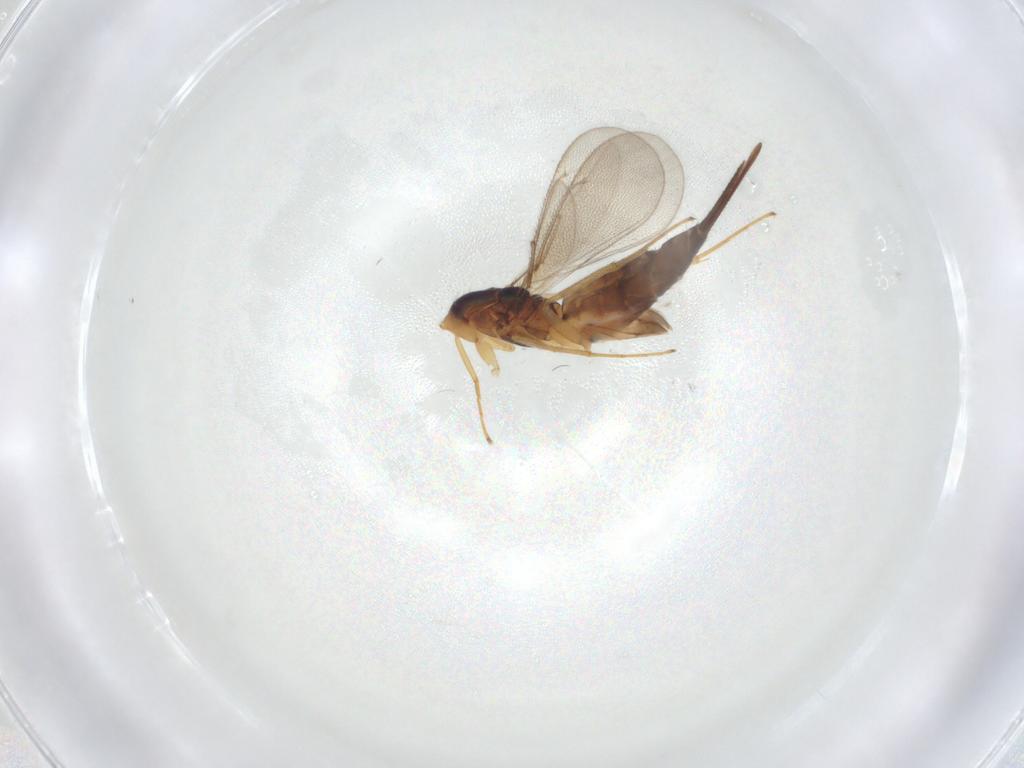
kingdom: Animalia
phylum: Arthropoda
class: Insecta
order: Hymenoptera
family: Eulophidae
